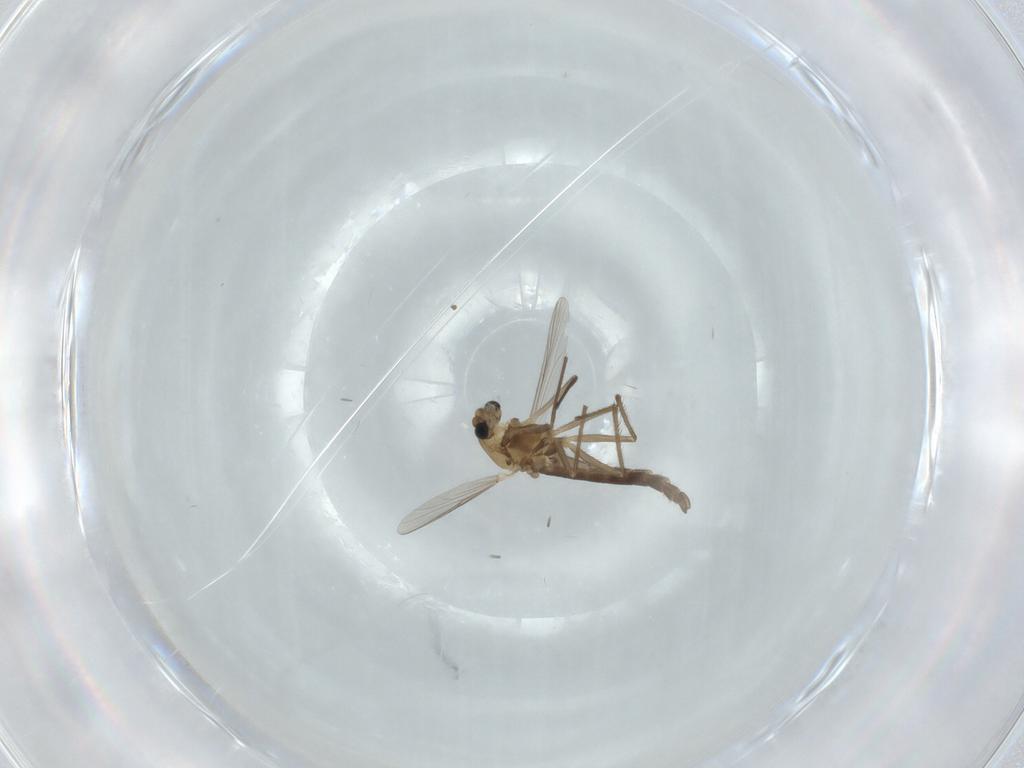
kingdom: Animalia
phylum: Arthropoda
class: Insecta
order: Diptera
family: Chironomidae
